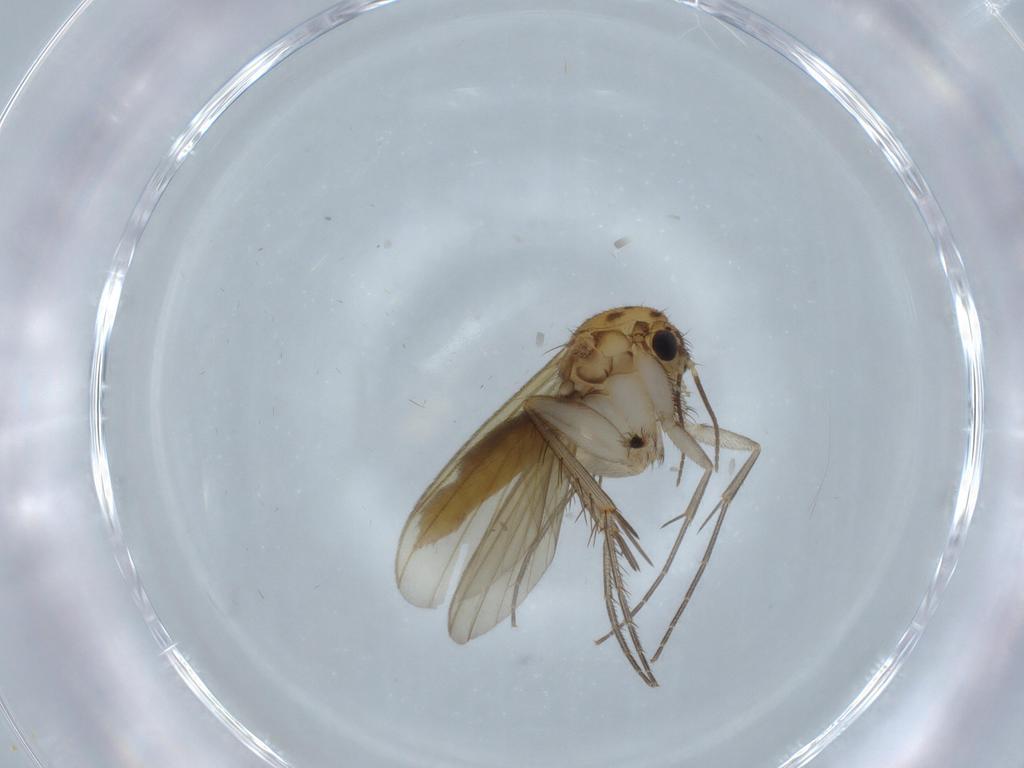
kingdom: Animalia
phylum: Arthropoda
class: Insecta
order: Diptera
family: Mycetophilidae
